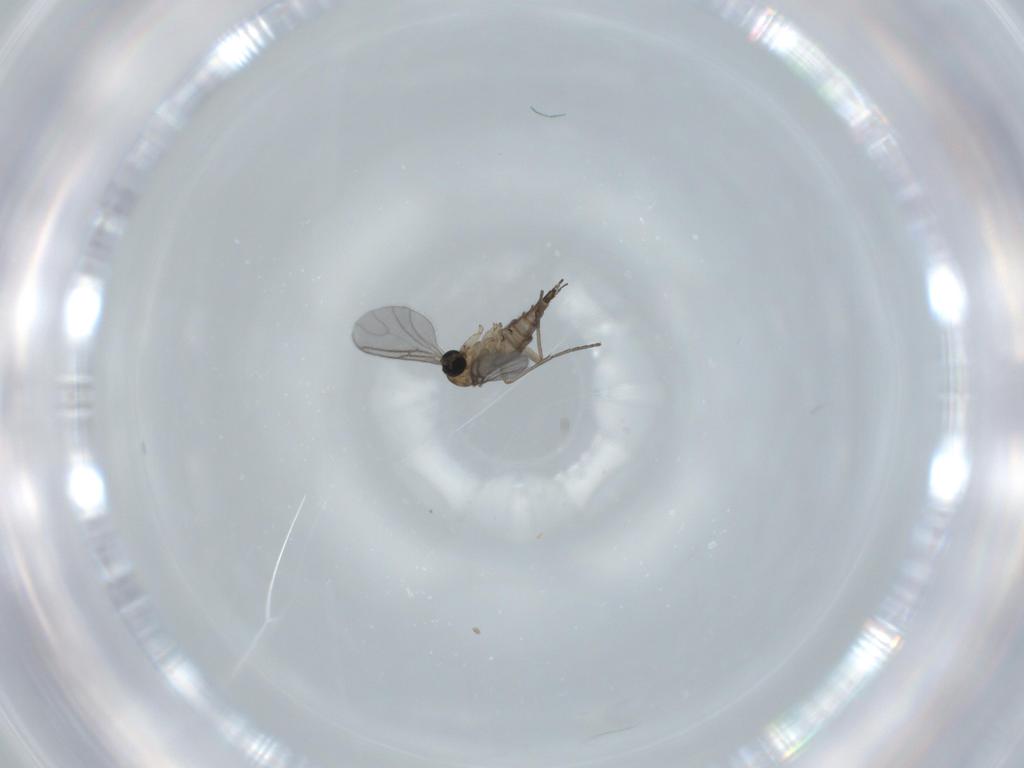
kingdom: Animalia
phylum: Arthropoda
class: Insecta
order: Diptera
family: Sciaridae
